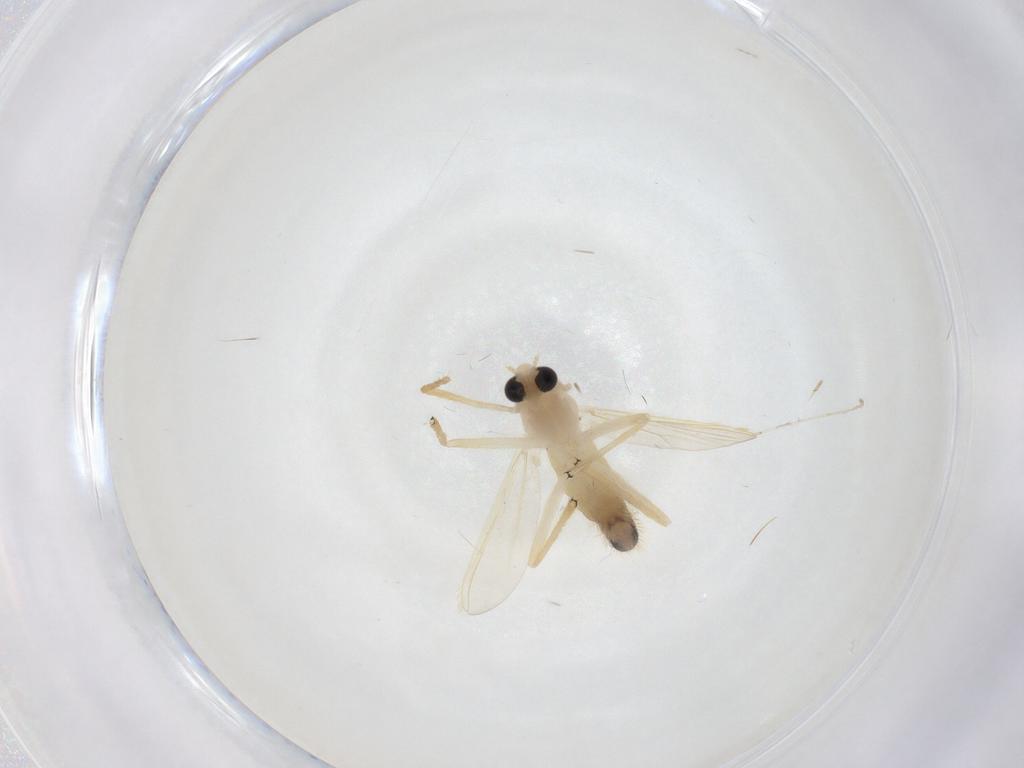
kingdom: Animalia
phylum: Arthropoda
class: Insecta
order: Diptera
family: Chironomidae
